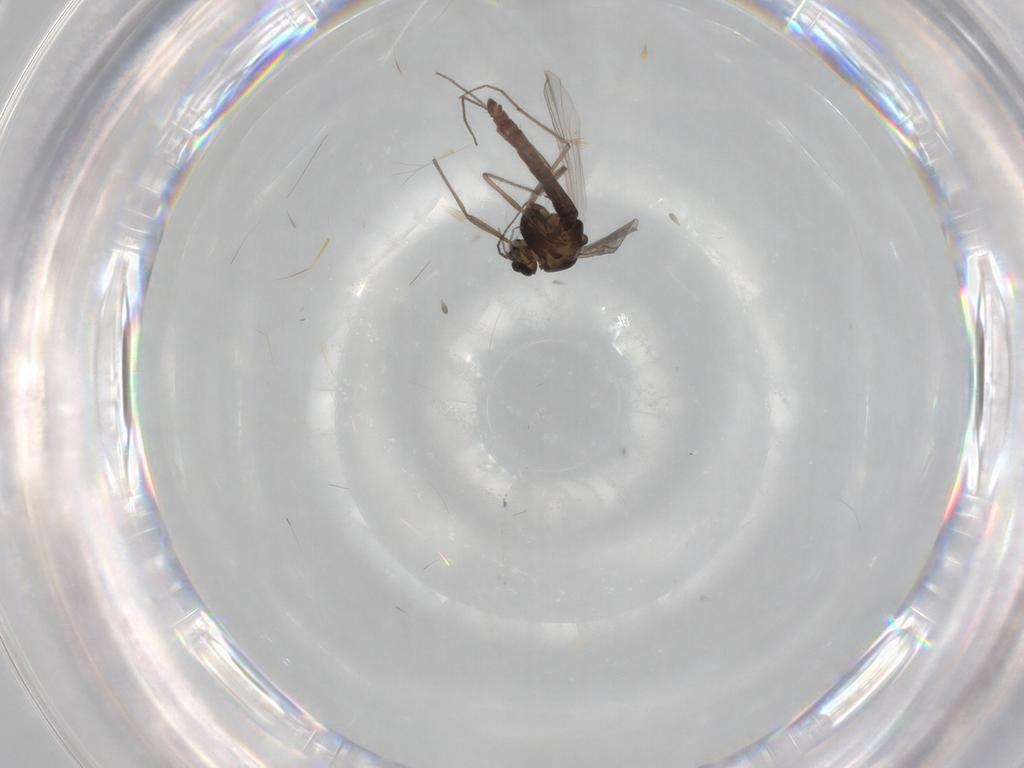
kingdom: Animalia
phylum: Arthropoda
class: Insecta
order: Diptera
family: Chironomidae
